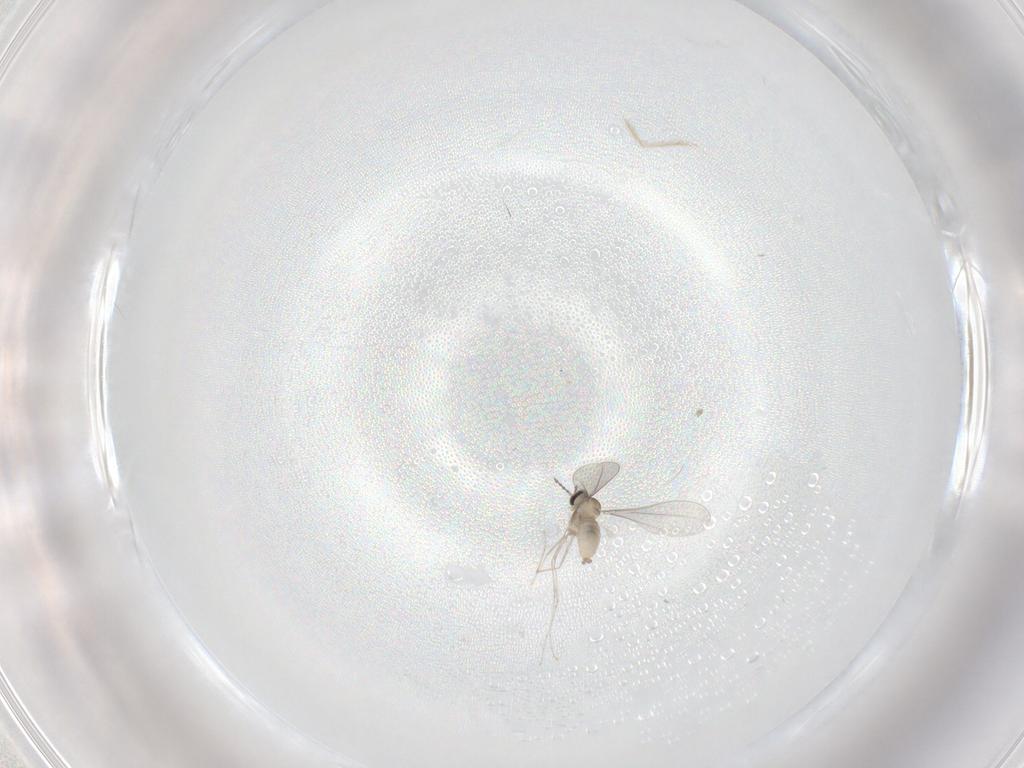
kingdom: Animalia
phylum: Arthropoda
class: Insecta
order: Diptera
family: Cecidomyiidae
